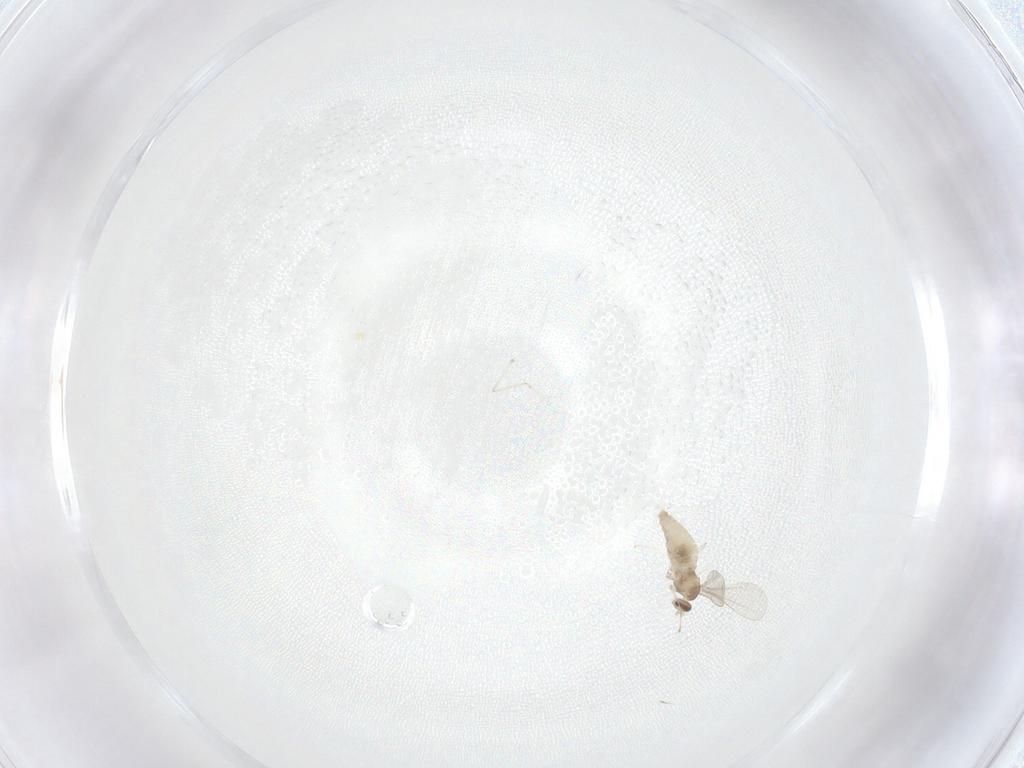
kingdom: Animalia
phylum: Arthropoda
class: Insecta
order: Diptera
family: Cecidomyiidae
